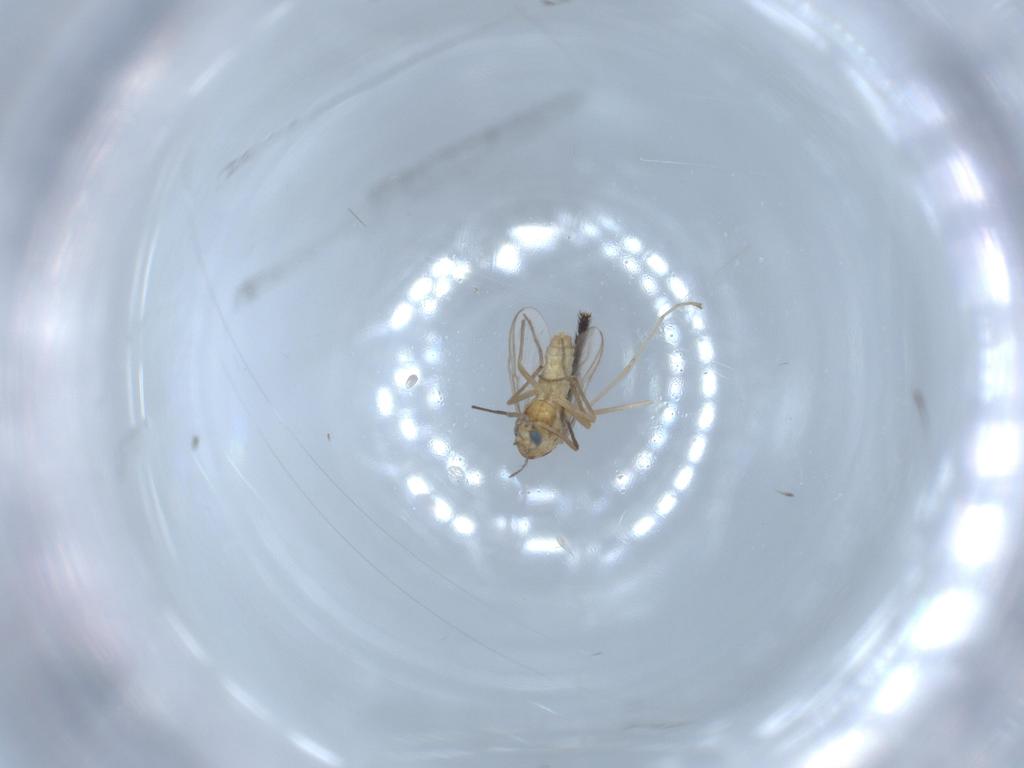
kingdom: Animalia
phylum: Arthropoda
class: Insecta
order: Diptera
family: Chironomidae
